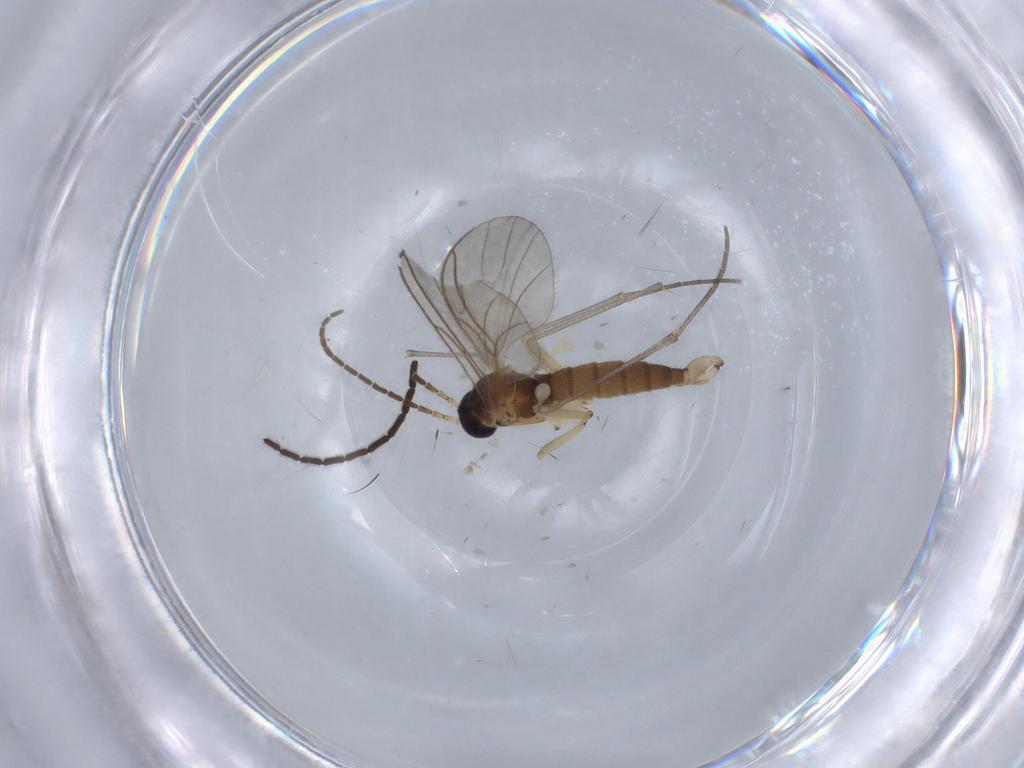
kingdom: Animalia
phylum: Arthropoda
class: Insecta
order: Diptera
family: Sciaridae
